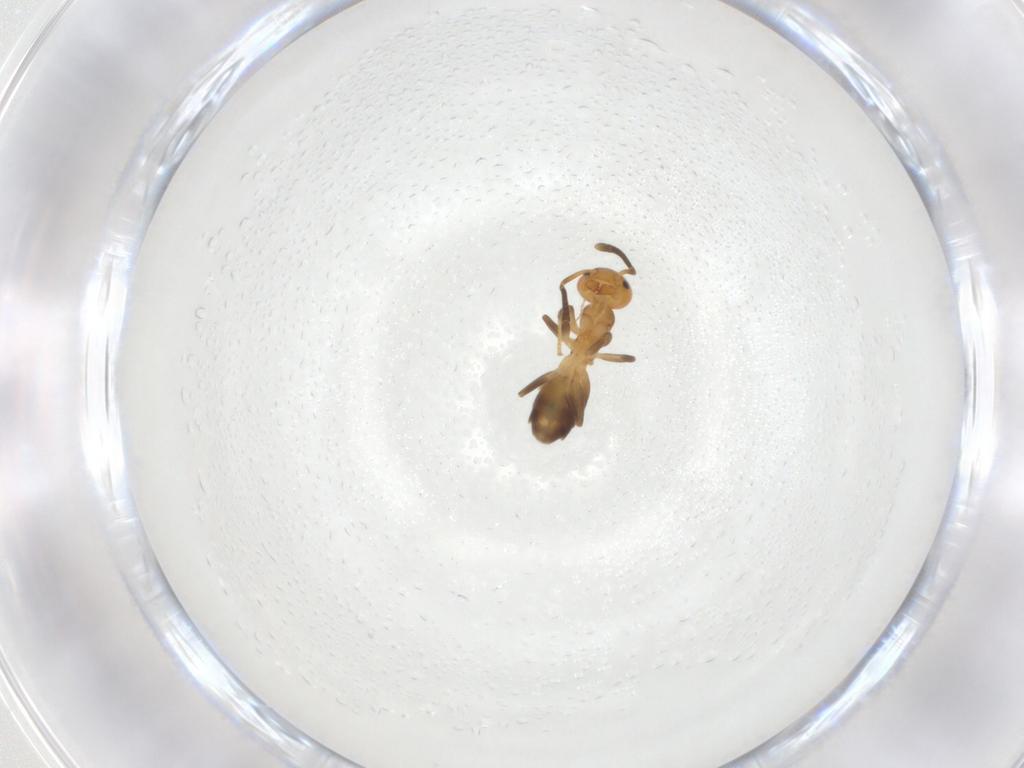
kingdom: Animalia
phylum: Arthropoda
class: Insecta
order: Hymenoptera
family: Formicidae
